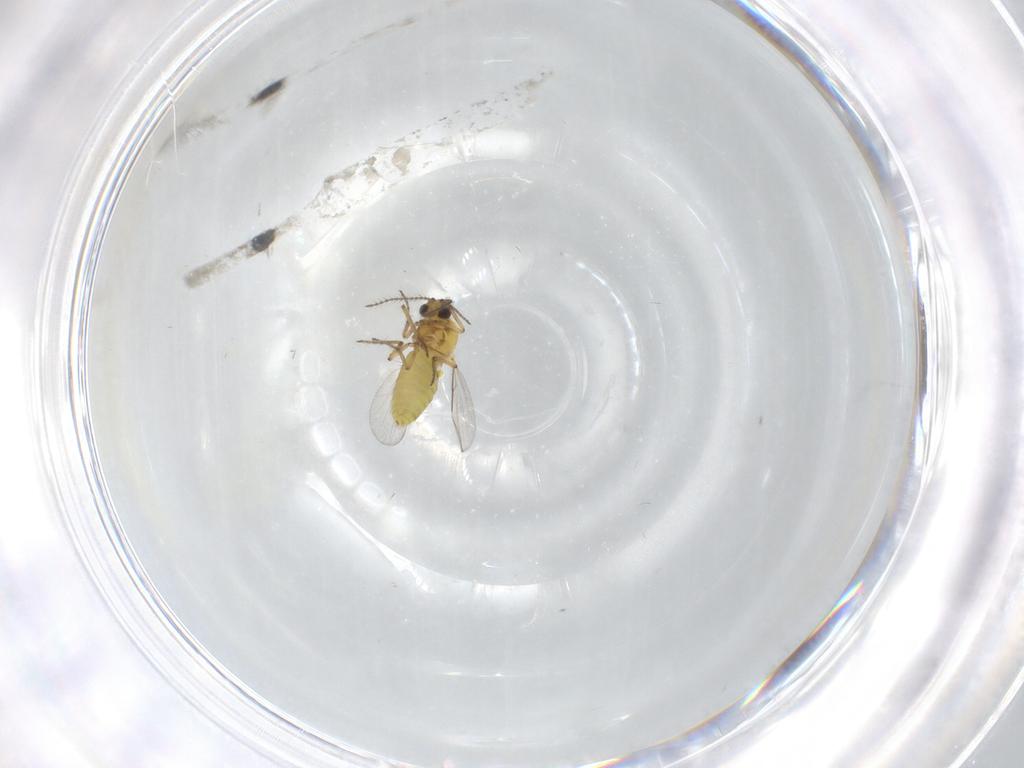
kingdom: Animalia
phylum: Arthropoda
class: Insecta
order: Diptera
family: Ceratopogonidae
